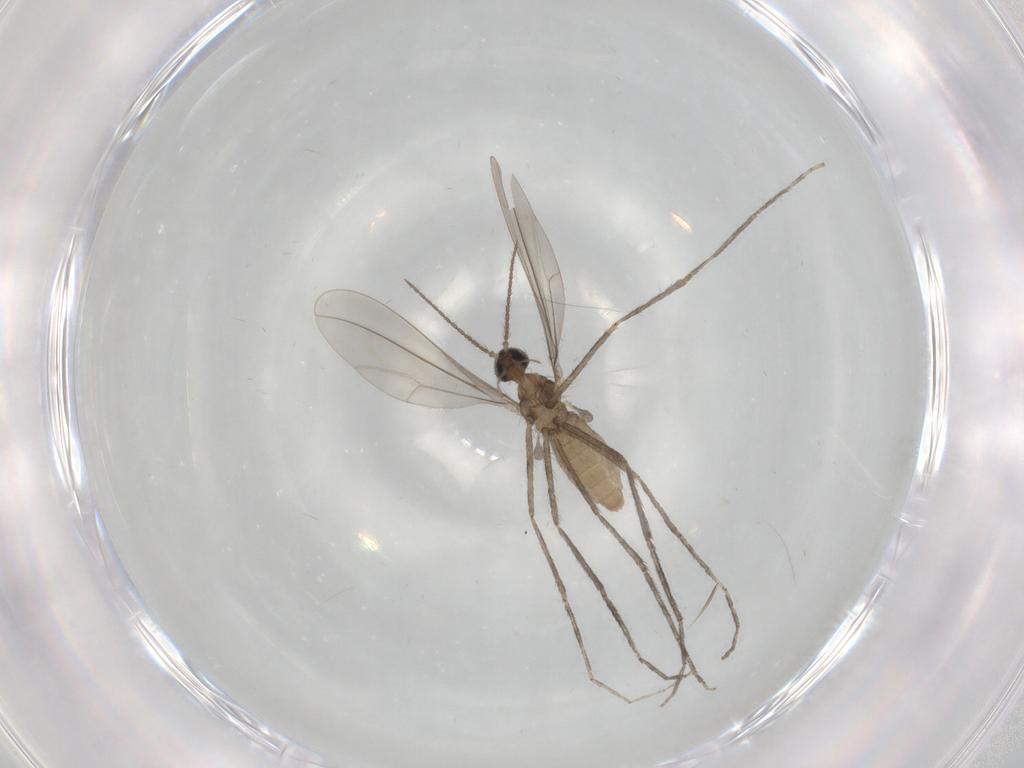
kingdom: Animalia
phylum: Arthropoda
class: Insecta
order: Diptera
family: Cecidomyiidae
